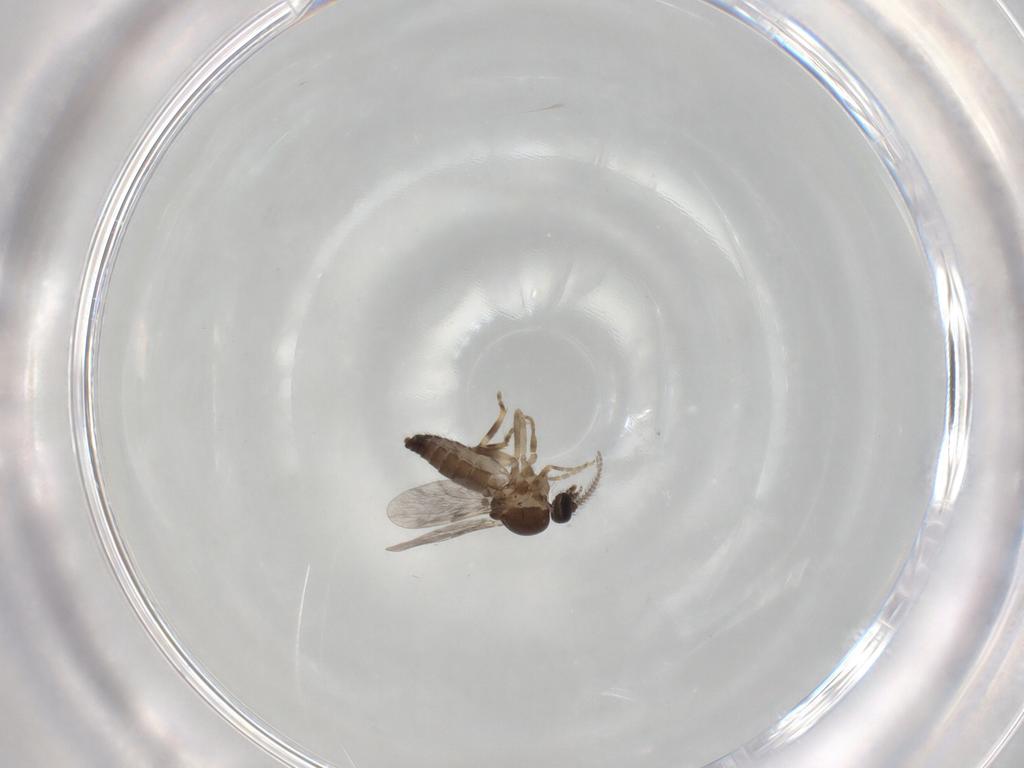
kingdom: Animalia
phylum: Arthropoda
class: Insecta
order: Diptera
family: Ceratopogonidae
